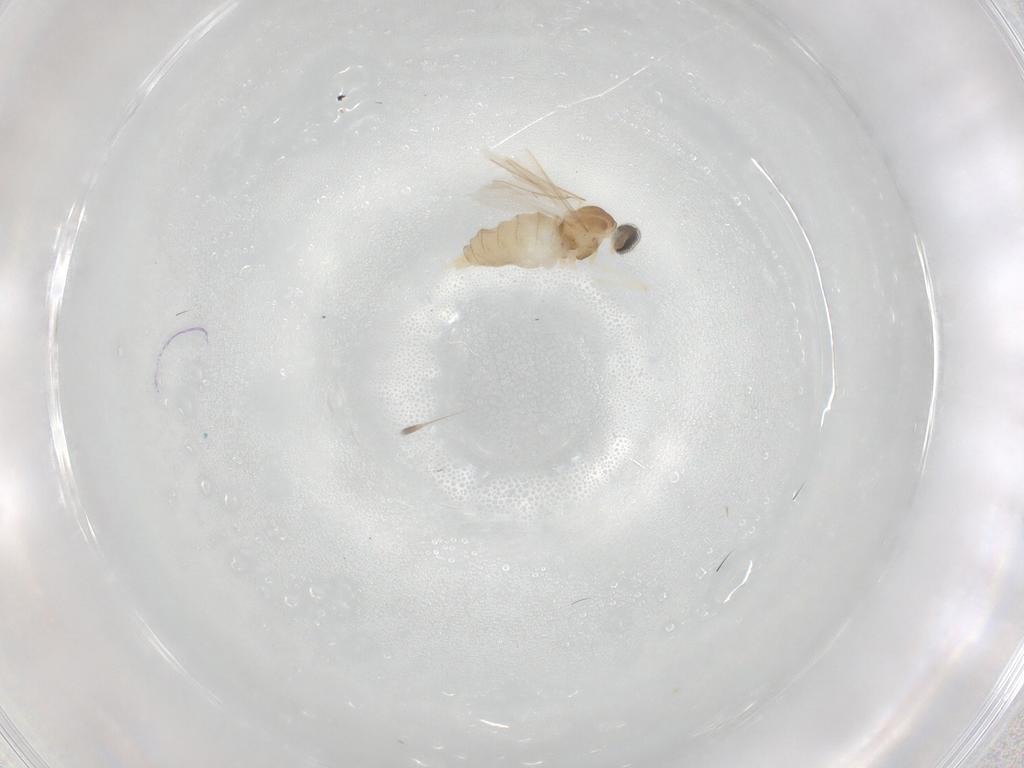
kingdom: Animalia
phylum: Arthropoda
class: Insecta
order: Diptera
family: Cecidomyiidae
